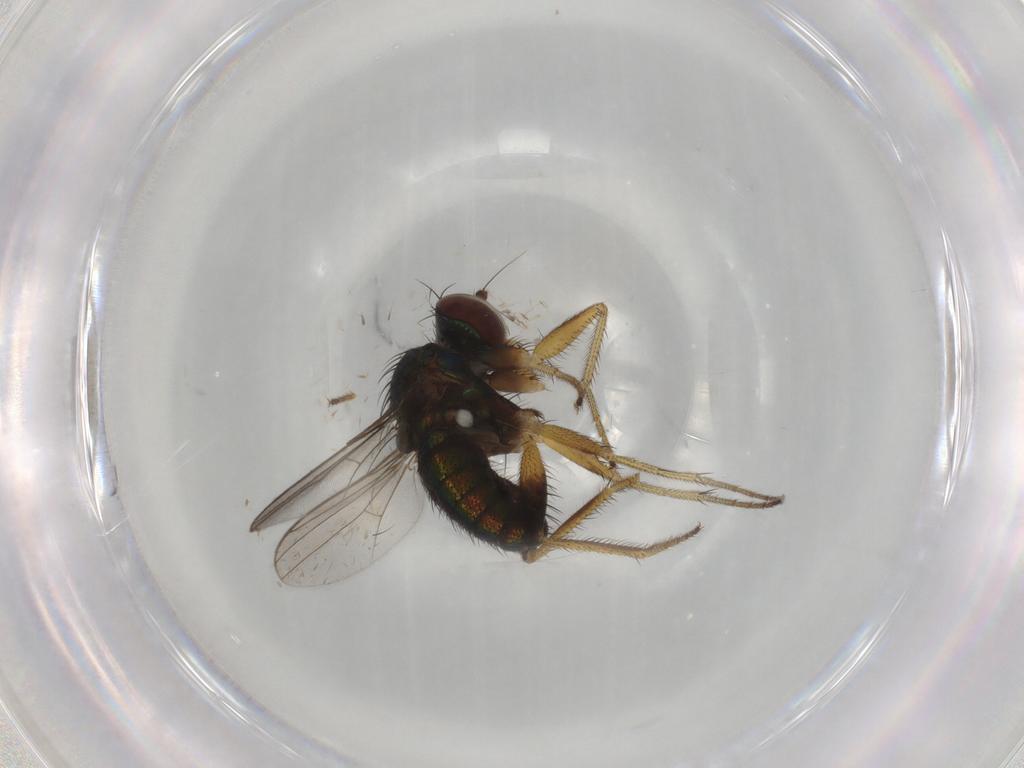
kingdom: Animalia
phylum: Arthropoda
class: Insecta
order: Diptera
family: Dolichopodidae
